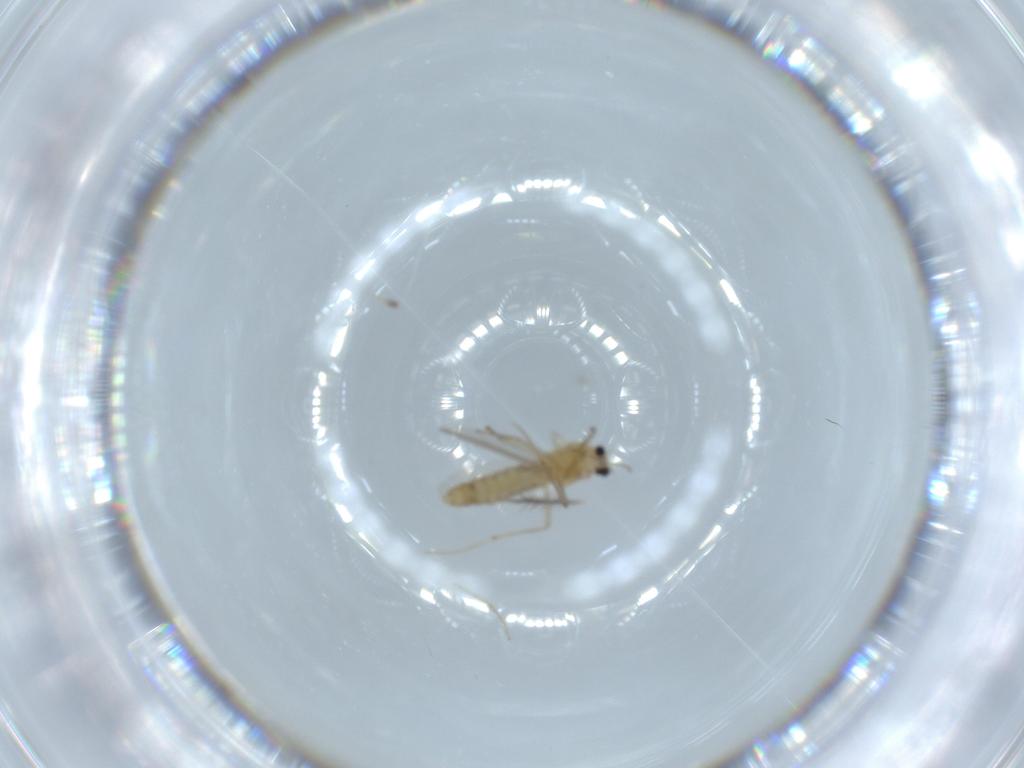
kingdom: Animalia
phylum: Arthropoda
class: Insecta
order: Diptera
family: Chironomidae
